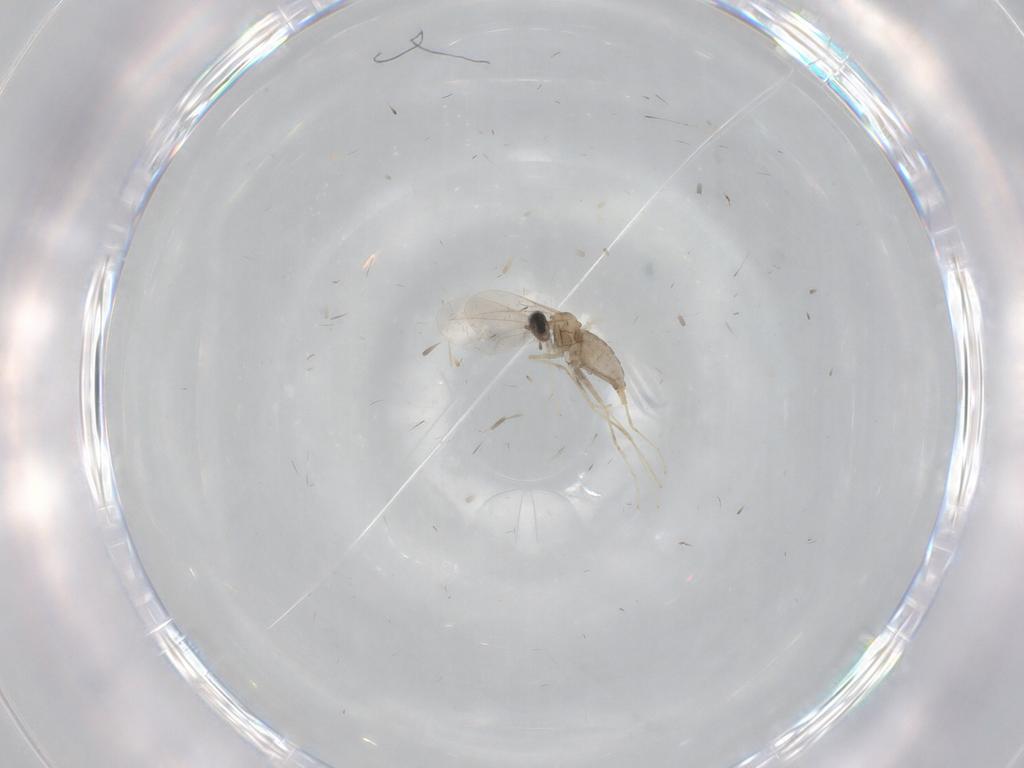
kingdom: Animalia
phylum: Arthropoda
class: Insecta
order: Diptera
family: Cecidomyiidae
